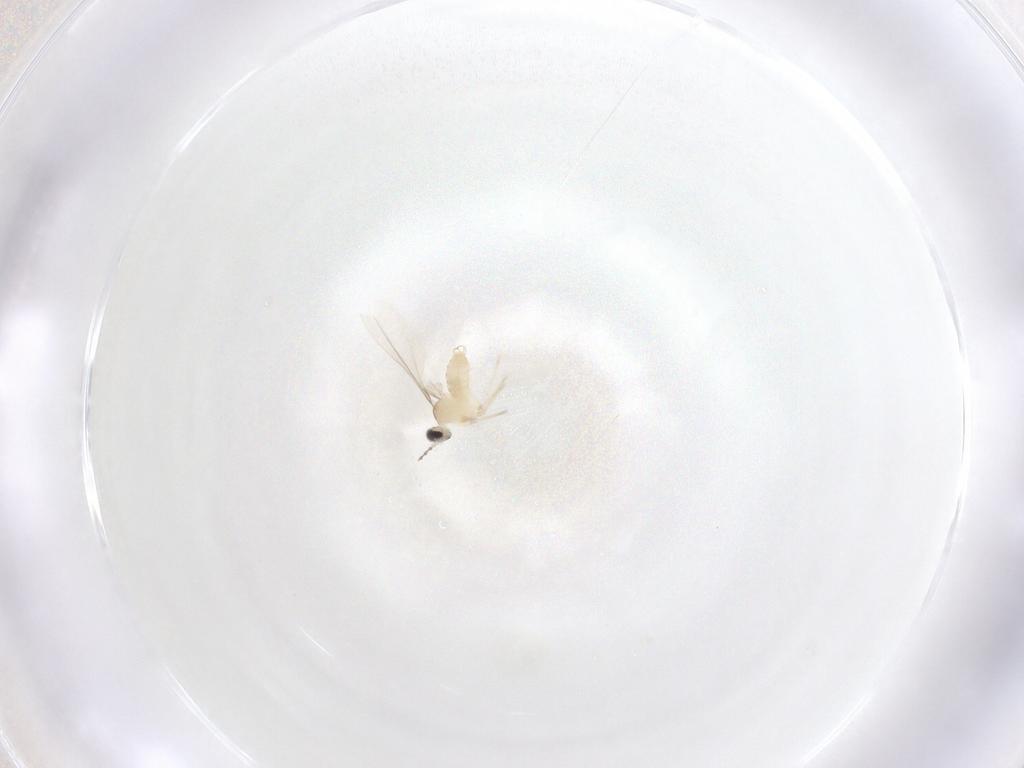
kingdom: Animalia
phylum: Arthropoda
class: Insecta
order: Diptera
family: Cecidomyiidae
